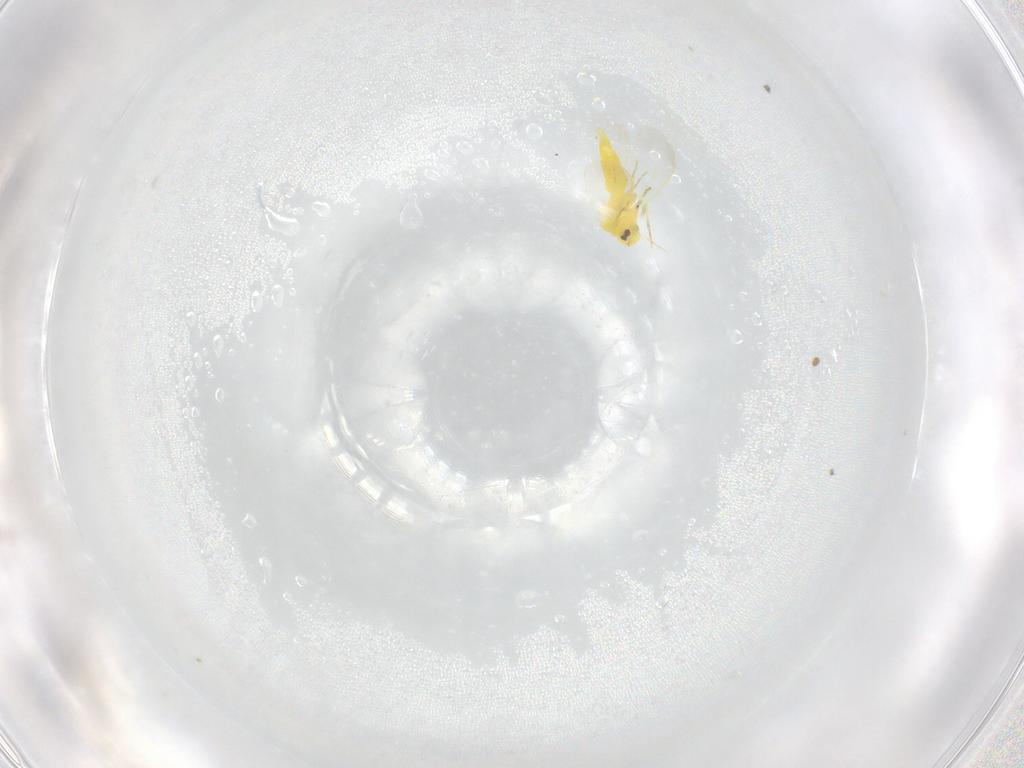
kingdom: Animalia
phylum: Arthropoda
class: Insecta
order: Hemiptera
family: Aleyrodidae
